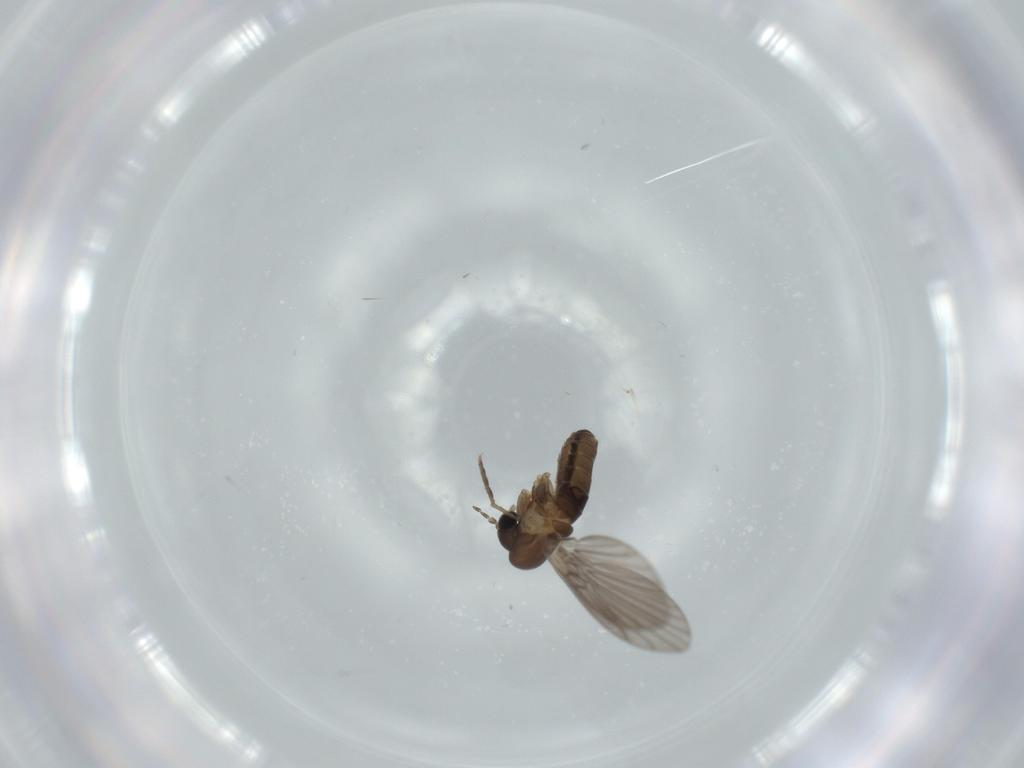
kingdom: Animalia
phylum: Arthropoda
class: Insecta
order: Diptera
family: Psychodidae
